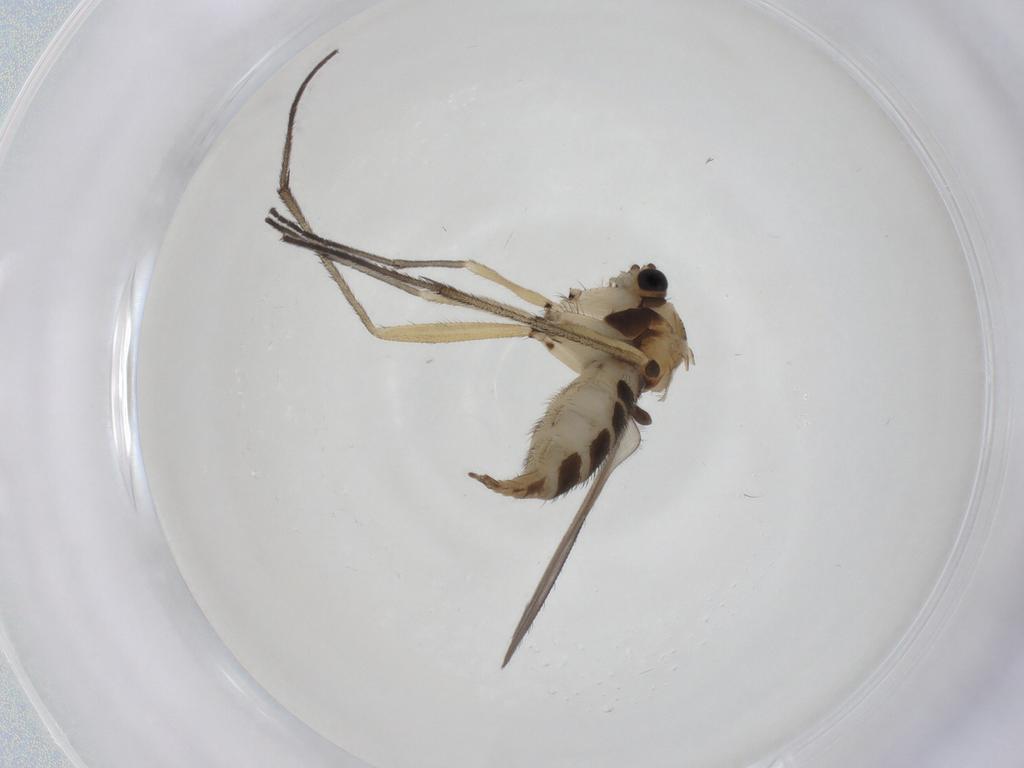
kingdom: Animalia
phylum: Arthropoda
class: Insecta
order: Diptera
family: Sciaridae
